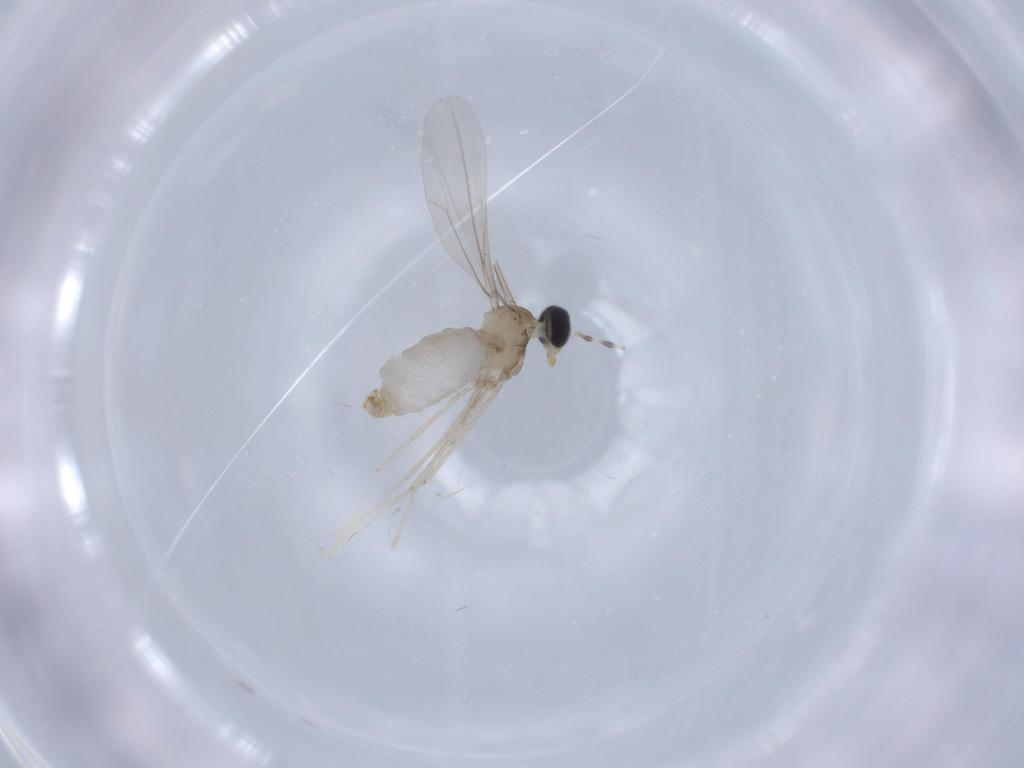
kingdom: Animalia
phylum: Arthropoda
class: Insecta
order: Diptera
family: Cecidomyiidae
